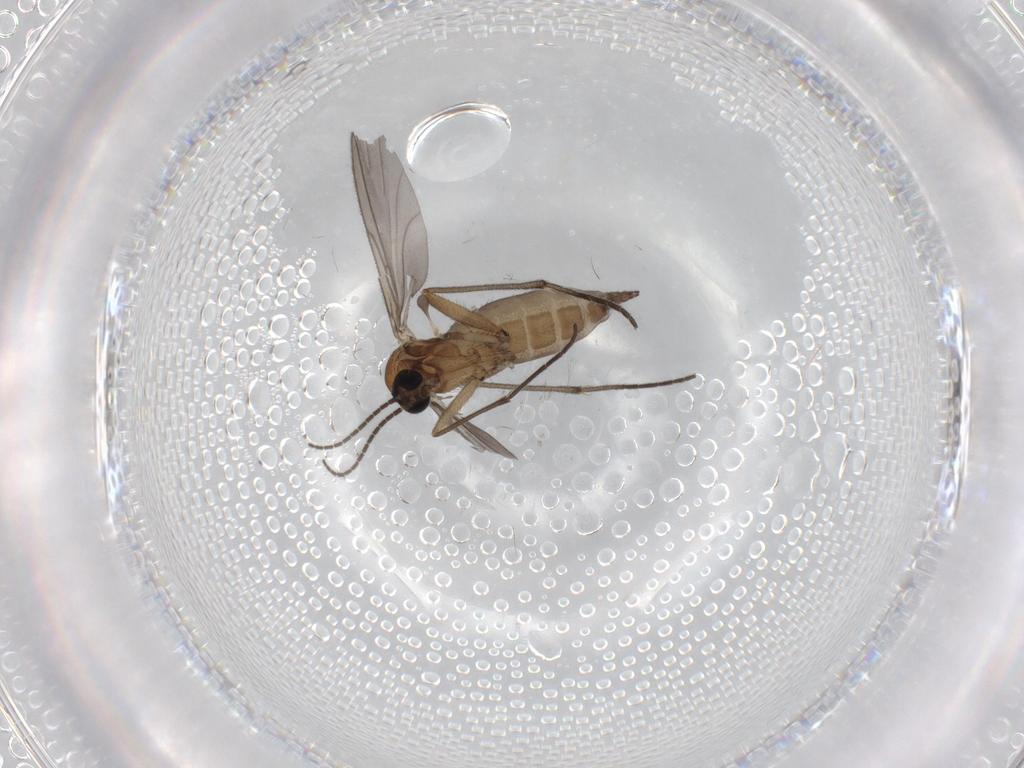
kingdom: Animalia
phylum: Arthropoda
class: Insecta
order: Diptera
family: Sciaridae
